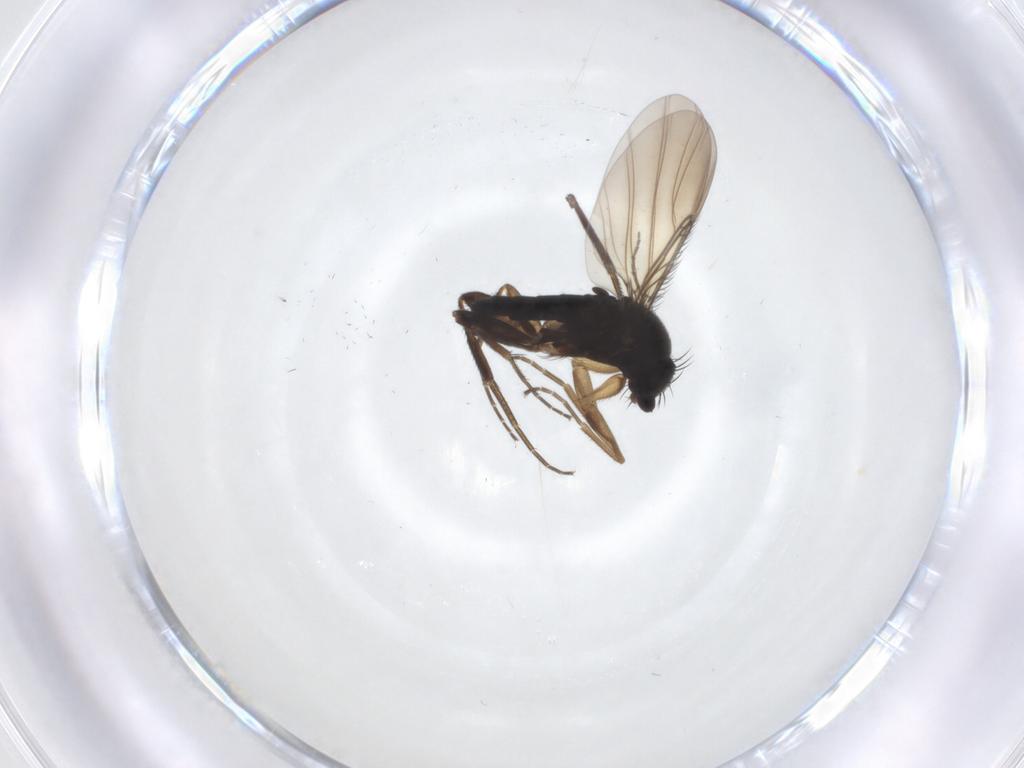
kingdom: Animalia
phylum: Arthropoda
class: Insecta
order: Diptera
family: Phoridae
